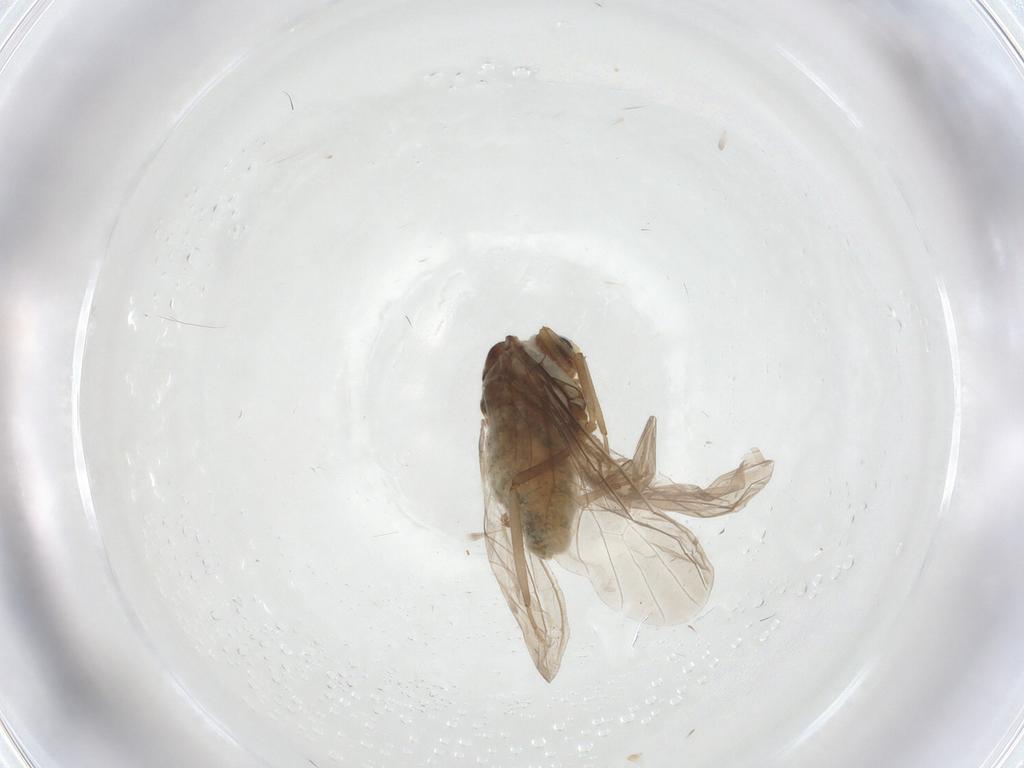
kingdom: Animalia
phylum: Arthropoda
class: Insecta
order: Neuroptera
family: Coniopterygidae
